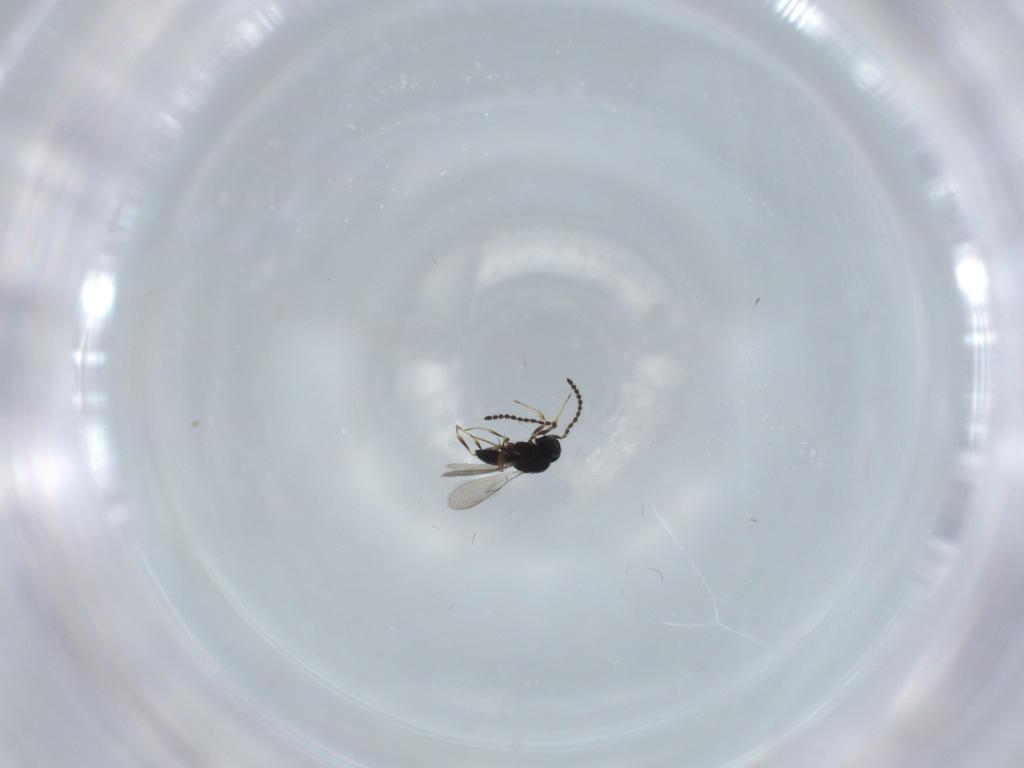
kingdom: Animalia
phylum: Arthropoda
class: Insecta
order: Hymenoptera
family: Scelionidae
